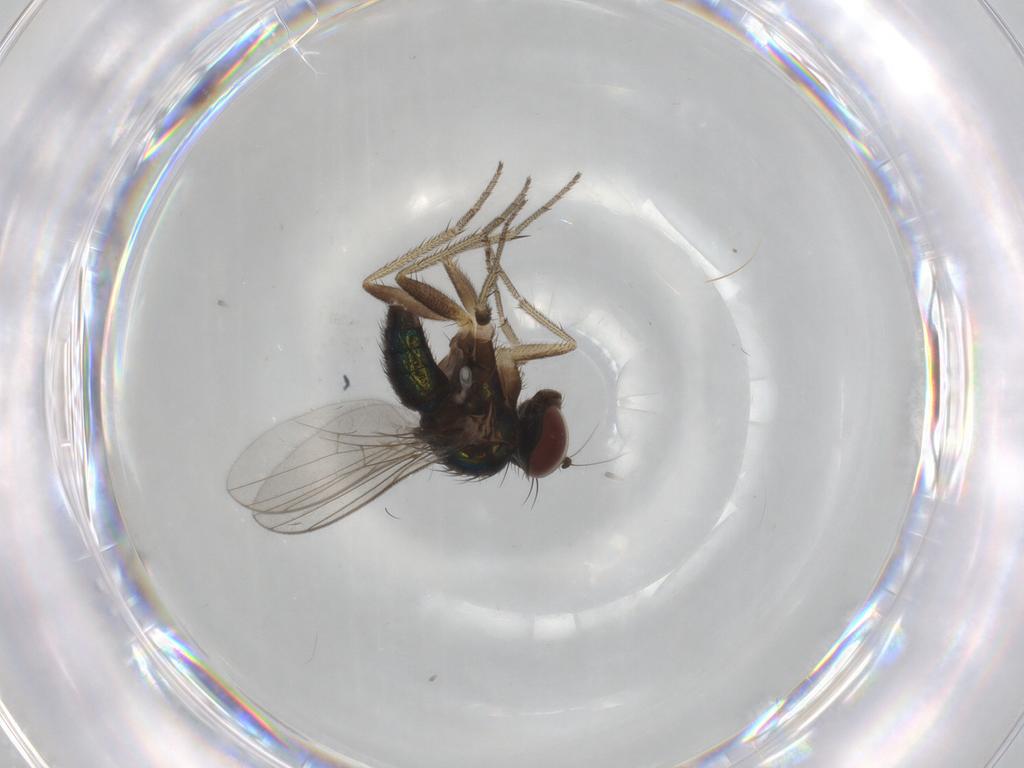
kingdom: Animalia
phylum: Arthropoda
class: Insecta
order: Diptera
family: Dolichopodidae
